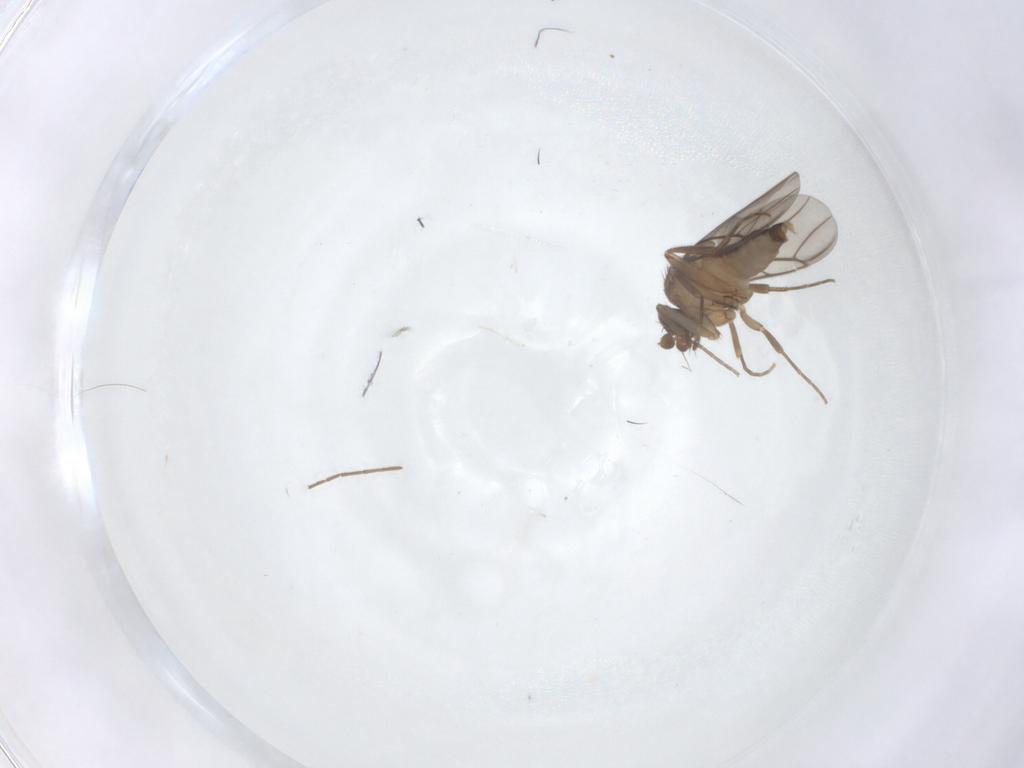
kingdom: Animalia
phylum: Arthropoda
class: Insecta
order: Diptera
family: Phoridae
